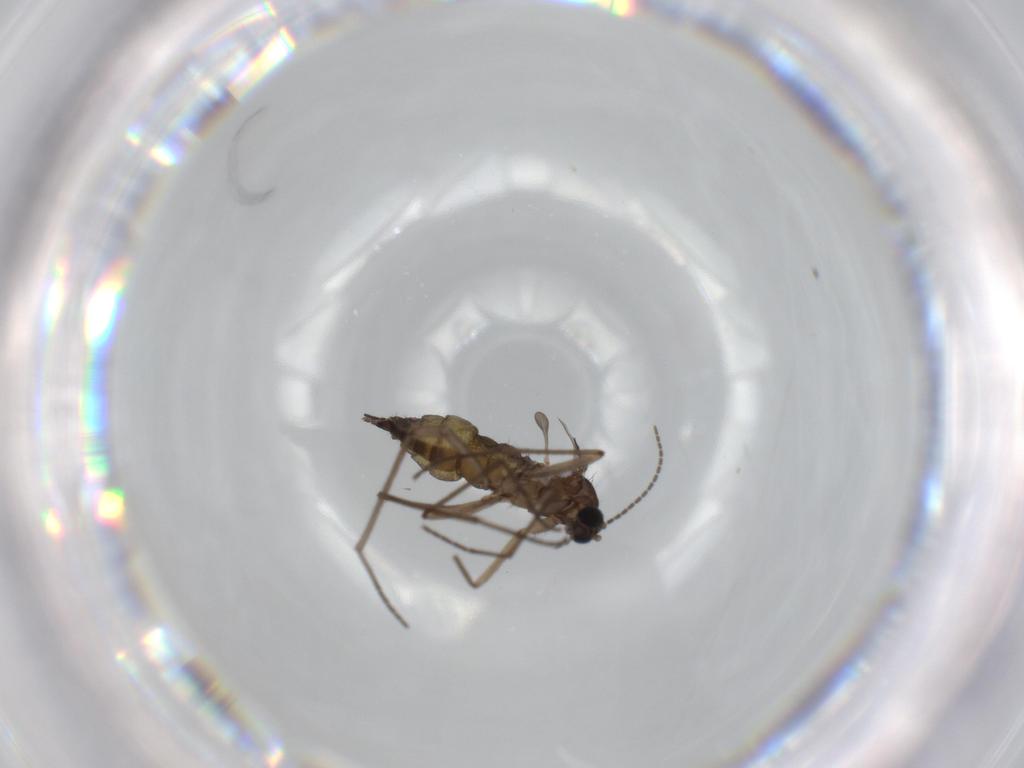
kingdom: Animalia
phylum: Arthropoda
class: Insecta
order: Diptera
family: Sciaridae
